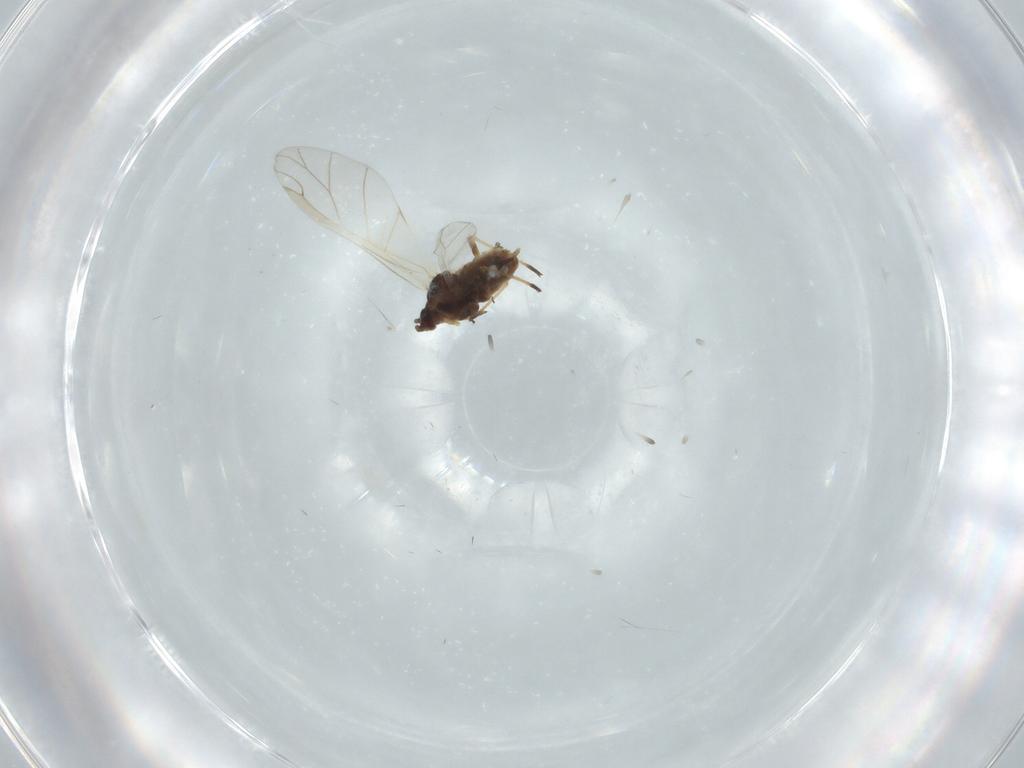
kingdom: Animalia
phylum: Arthropoda
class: Insecta
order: Hemiptera
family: Aphididae
